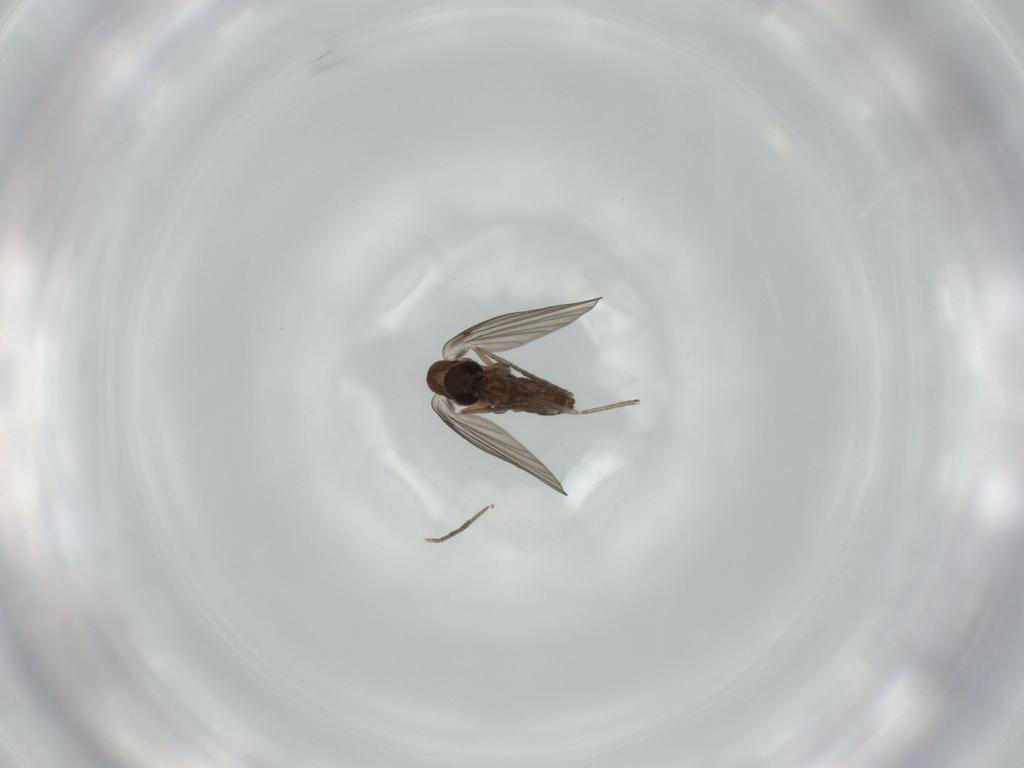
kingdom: Animalia
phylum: Arthropoda
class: Insecta
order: Diptera
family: Psychodidae
